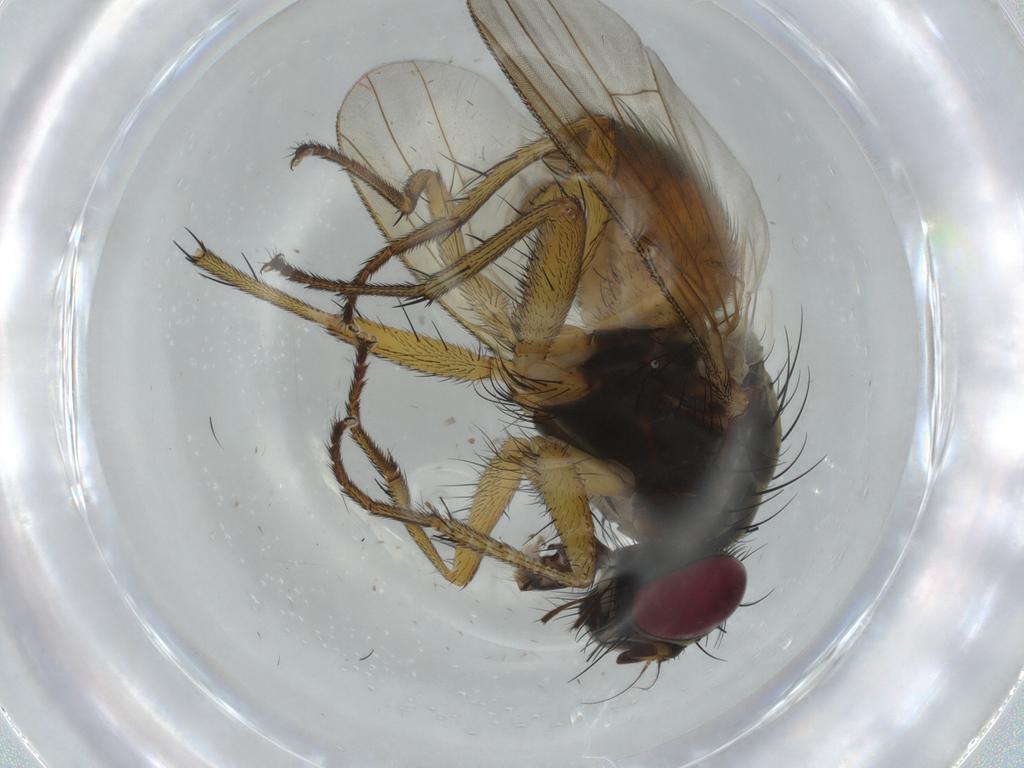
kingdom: Animalia
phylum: Arthropoda
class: Insecta
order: Diptera
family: Muscidae
